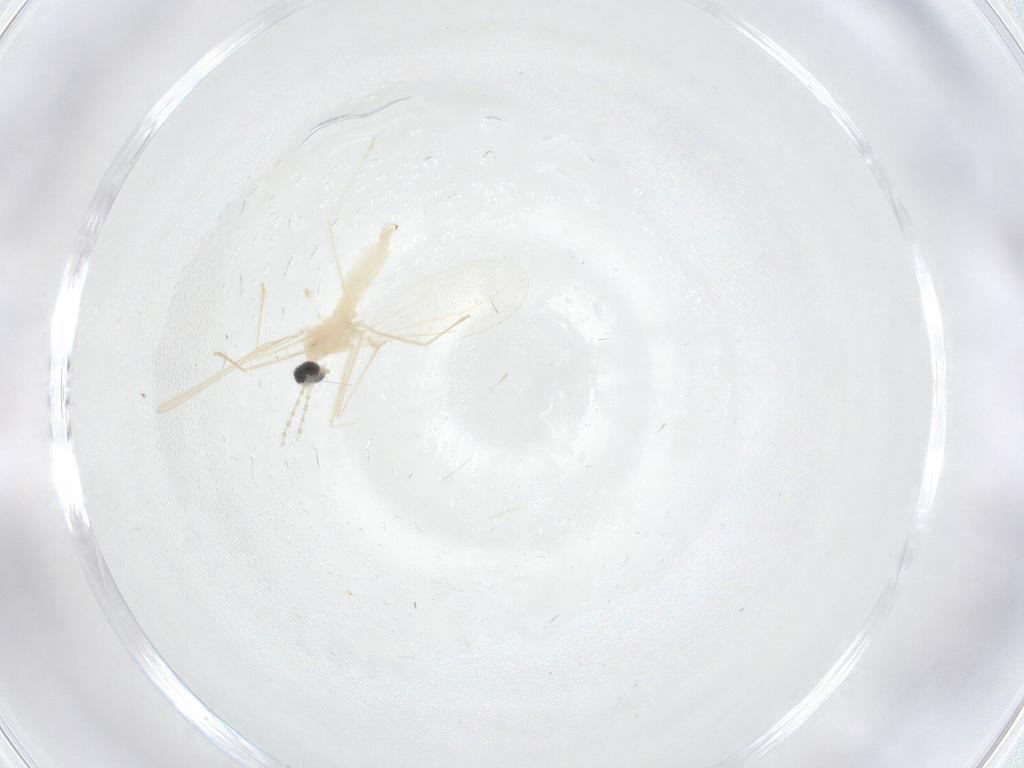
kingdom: Animalia
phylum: Arthropoda
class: Insecta
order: Diptera
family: Cecidomyiidae
